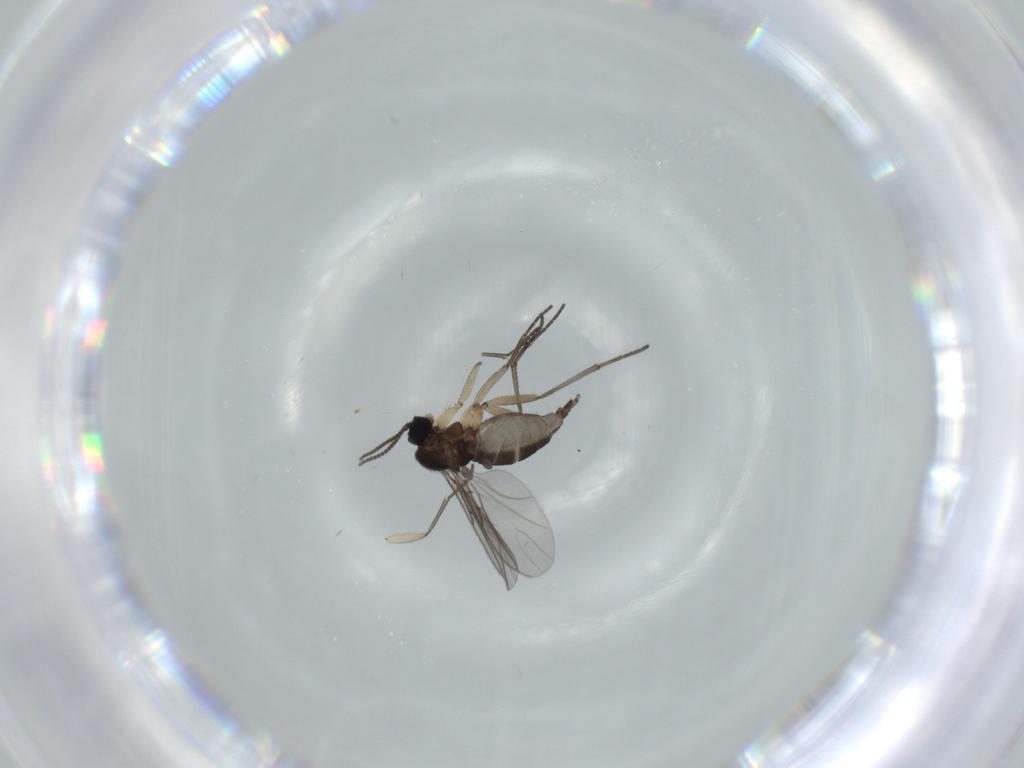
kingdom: Animalia
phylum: Arthropoda
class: Insecta
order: Diptera
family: Sciaridae
